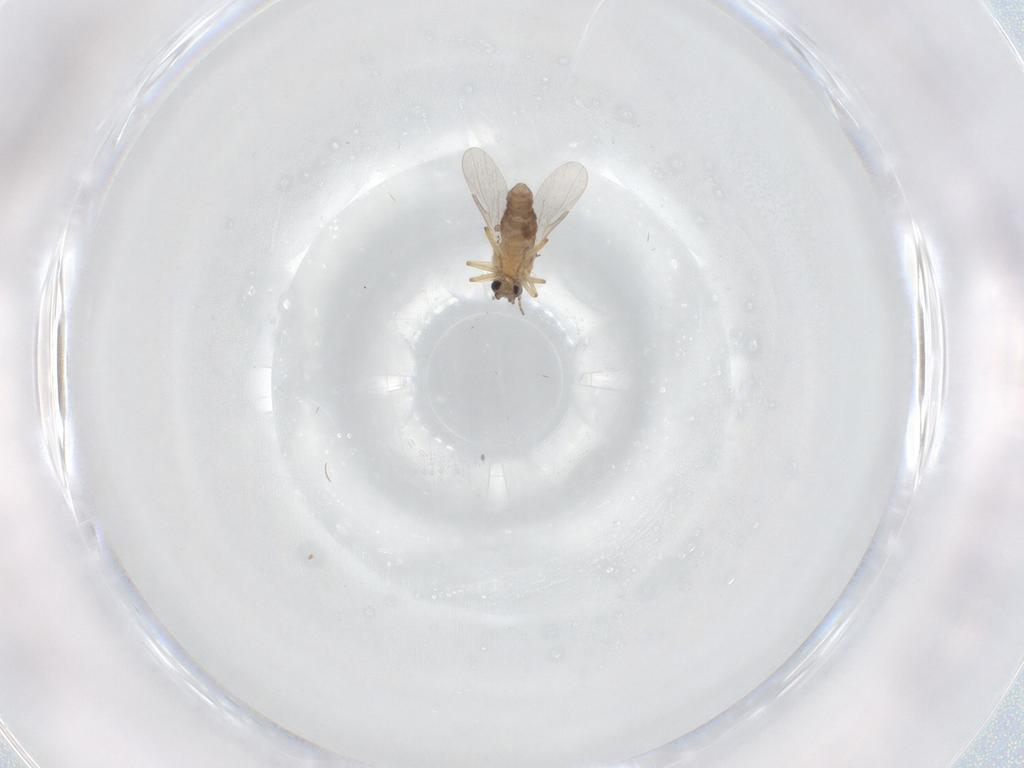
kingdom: Animalia
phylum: Arthropoda
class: Insecta
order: Diptera
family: Ceratopogonidae
